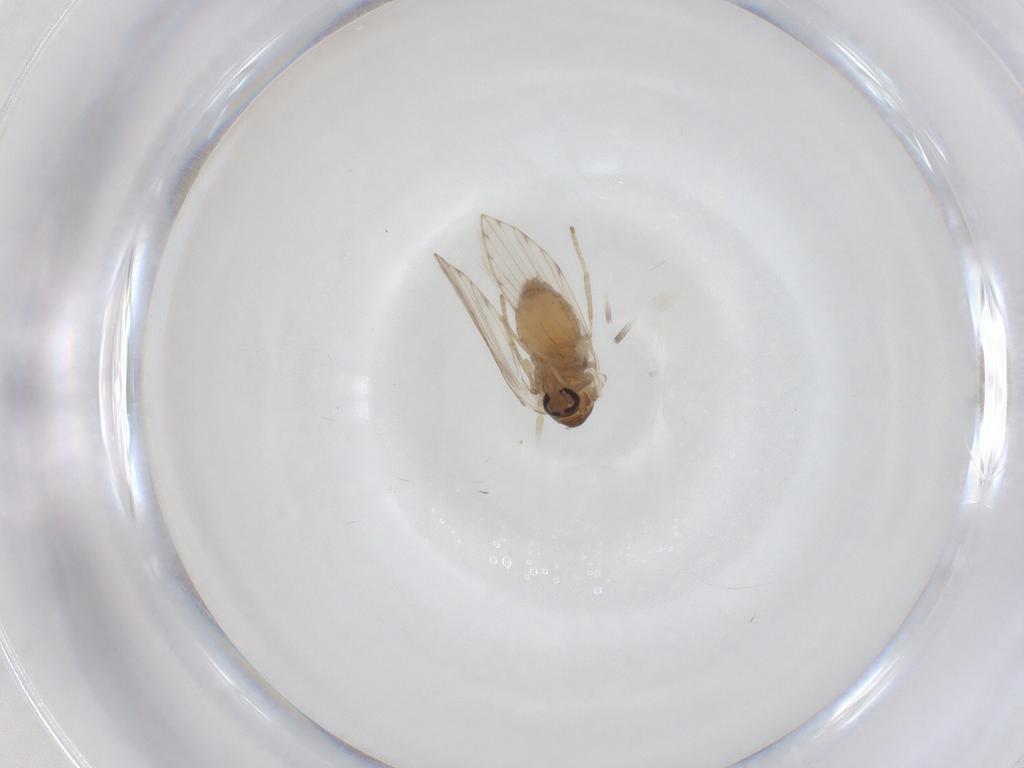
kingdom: Animalia
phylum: Arthropoda
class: Insecta
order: Diptera
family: Psychodidae
